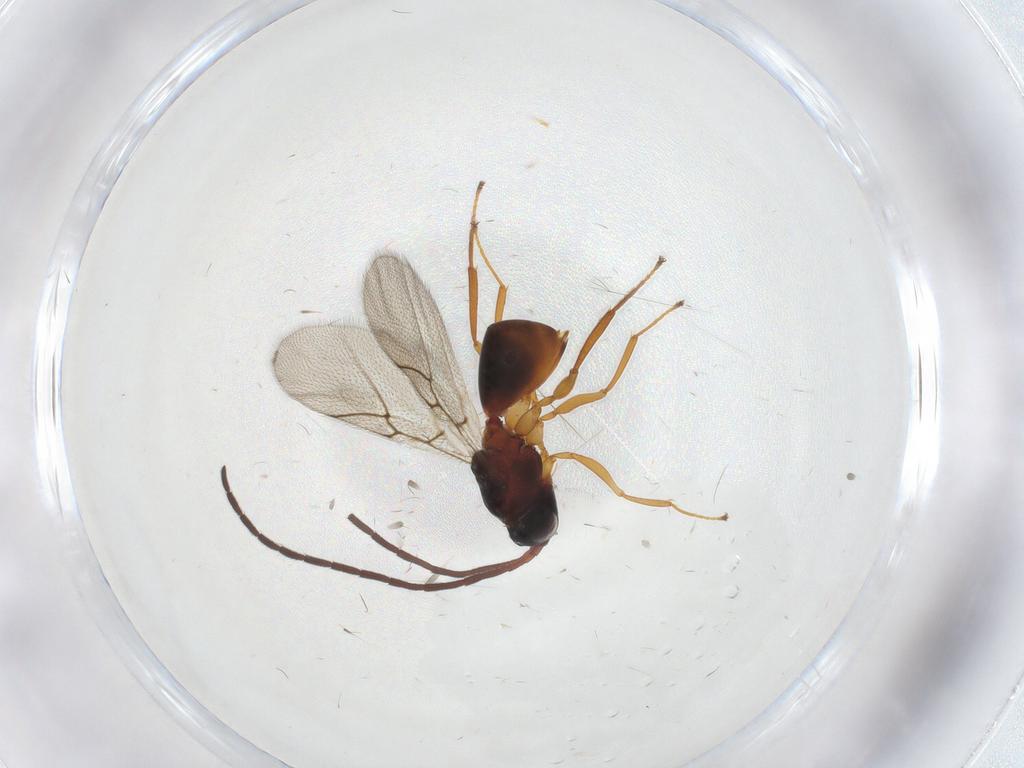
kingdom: Animalia
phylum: Arthropoda
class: Insecta
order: Hymenoptera
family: Figitidae
